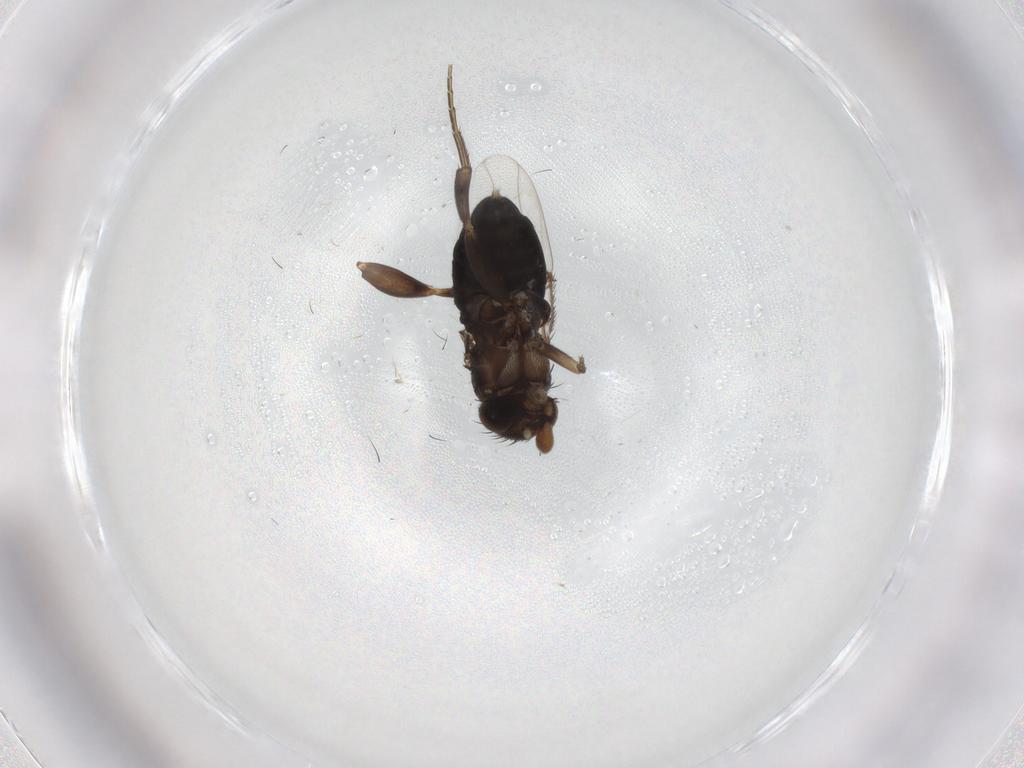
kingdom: Animalia
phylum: Arthropoda
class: Insecta
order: Diptera
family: Phoridae
